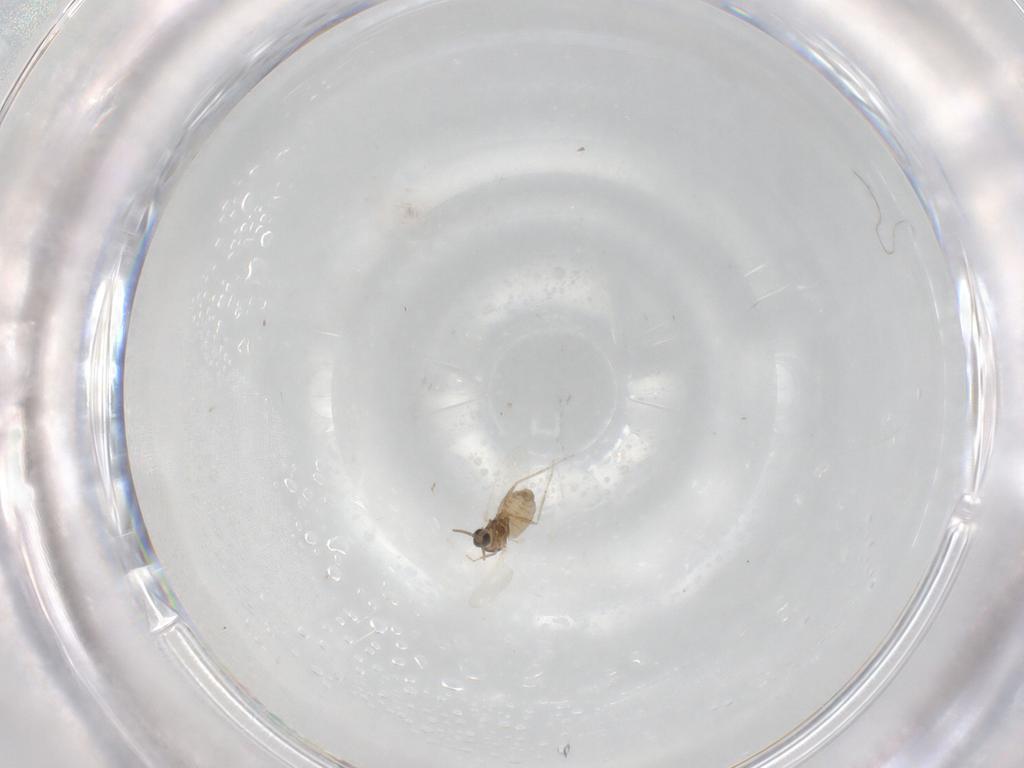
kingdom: Animalia
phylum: Arthropoda
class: Insecta
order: Diptera
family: Cecidomyiidae
